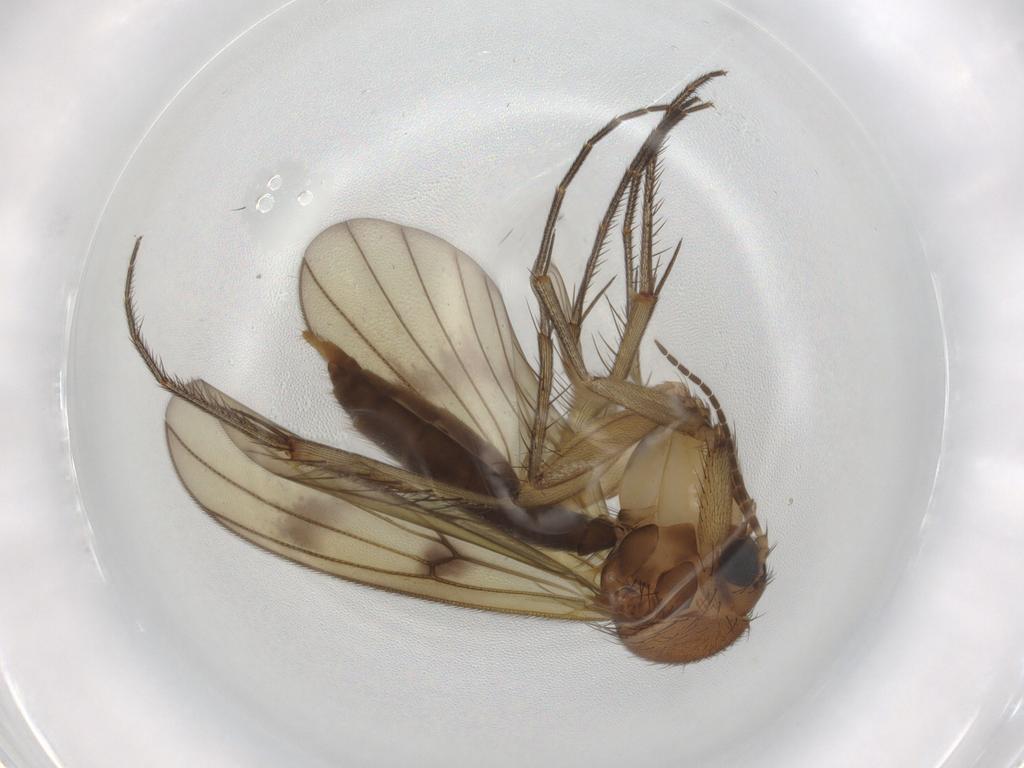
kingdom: Animalia
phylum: Arthropoda
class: Insecta
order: Diptera
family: Psychodidae
